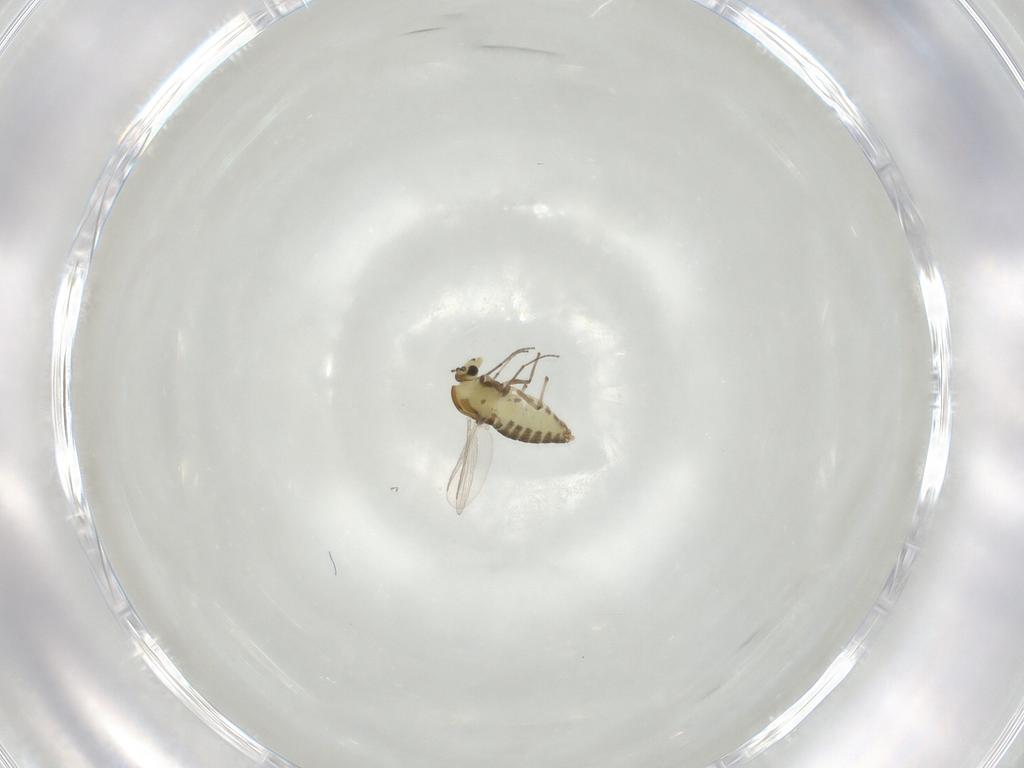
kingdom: Animalia
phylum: Arthropoda
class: Insecta
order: Diptera
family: Chironomidae
